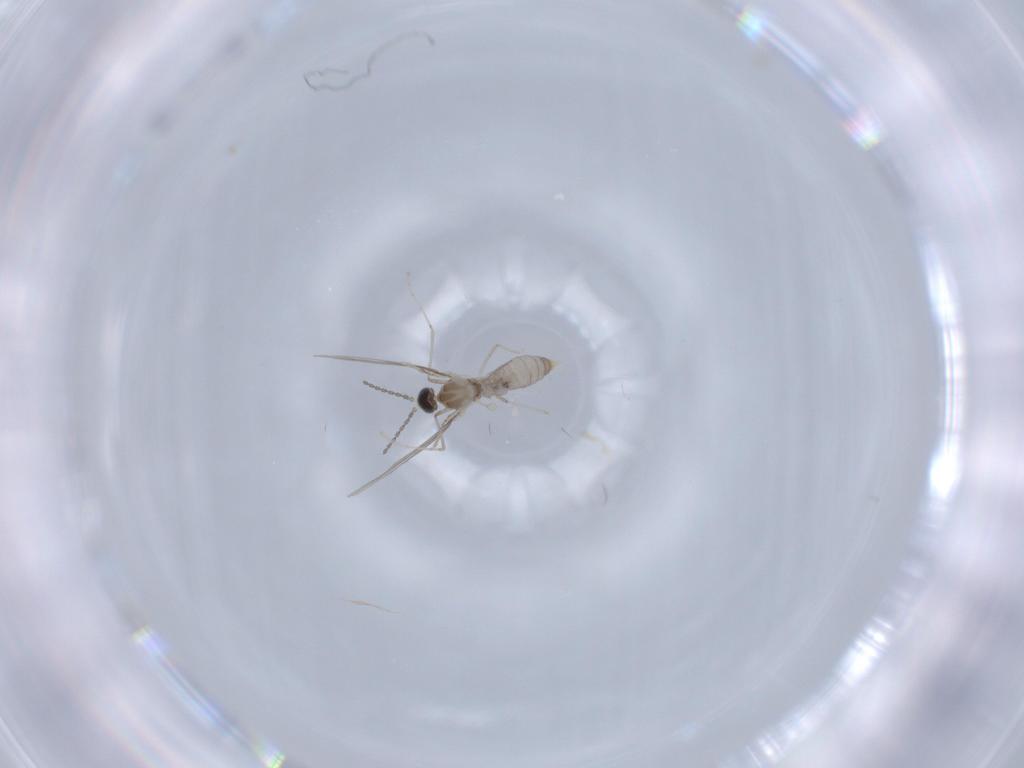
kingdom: Animalia
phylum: Arthropoda
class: Insecta
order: Diptera
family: Cecidomyiidae
